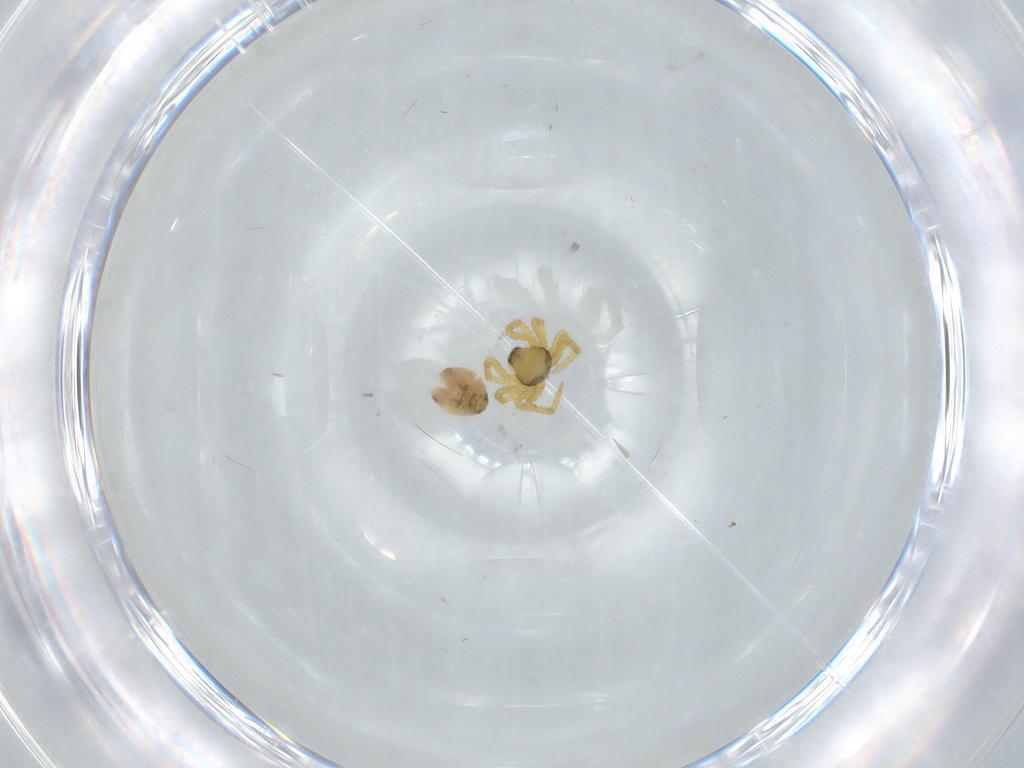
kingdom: Animalia
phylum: Arthropoda
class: Arachnida
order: Araneae
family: Theridiidae
